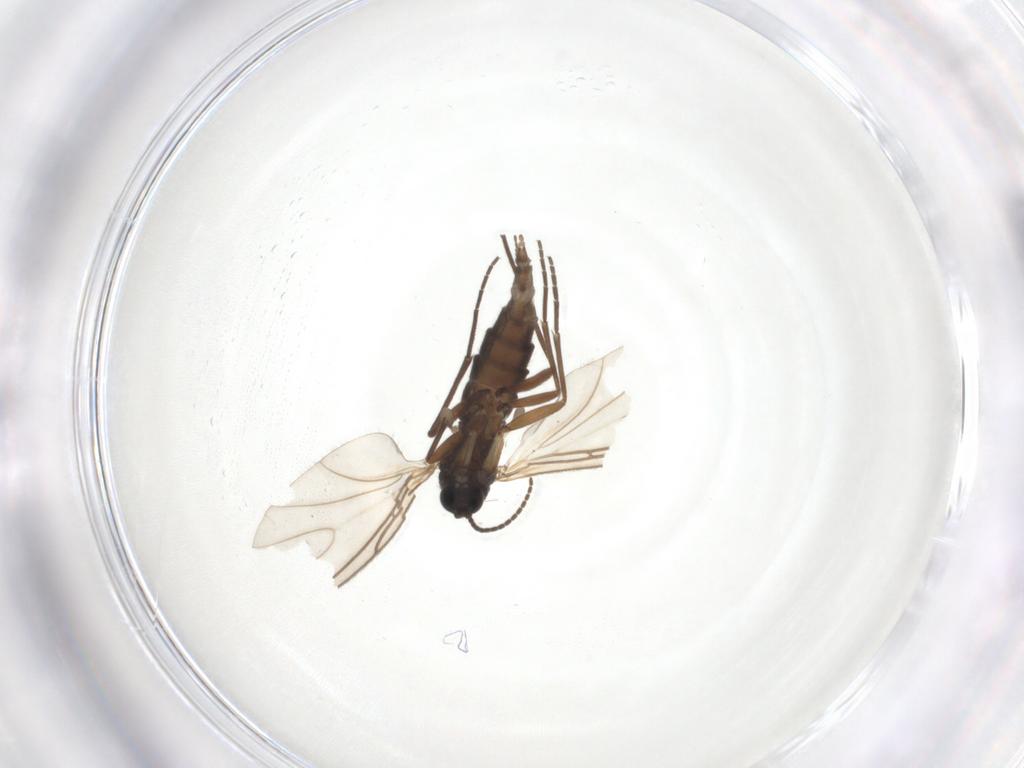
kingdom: Animalia
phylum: Arthropoda
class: Insecta
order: Diptera
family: Sciaridae
